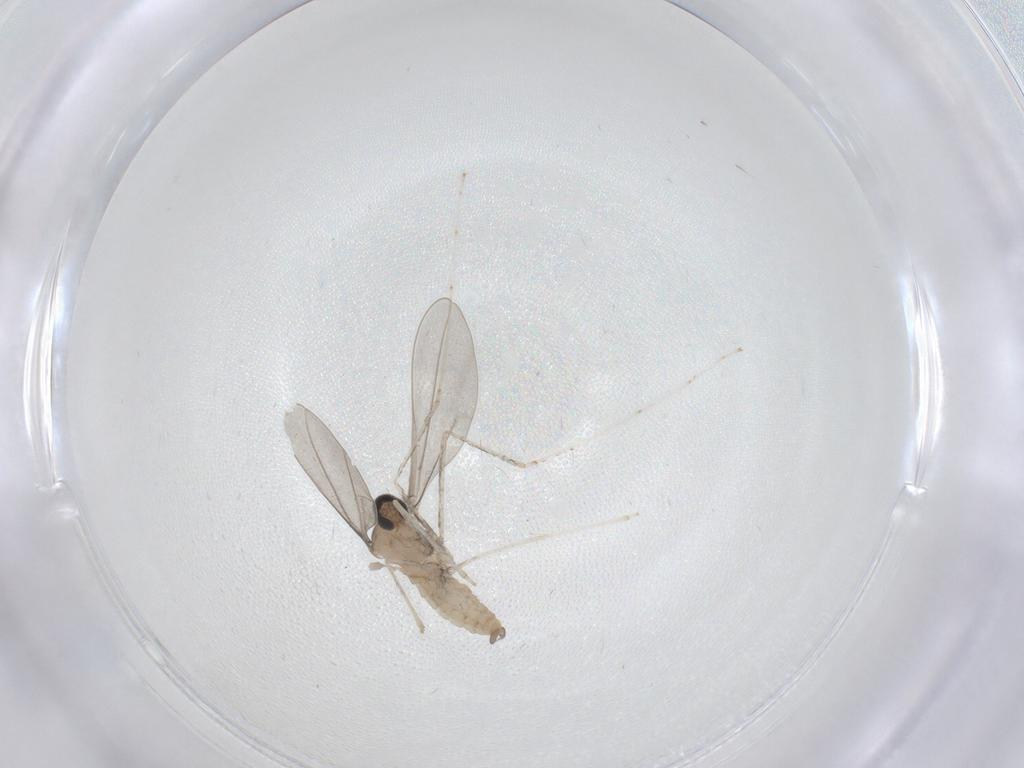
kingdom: Animalia
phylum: Arthropoda
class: Insecta
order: Diptera
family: Cecidomyiidae
